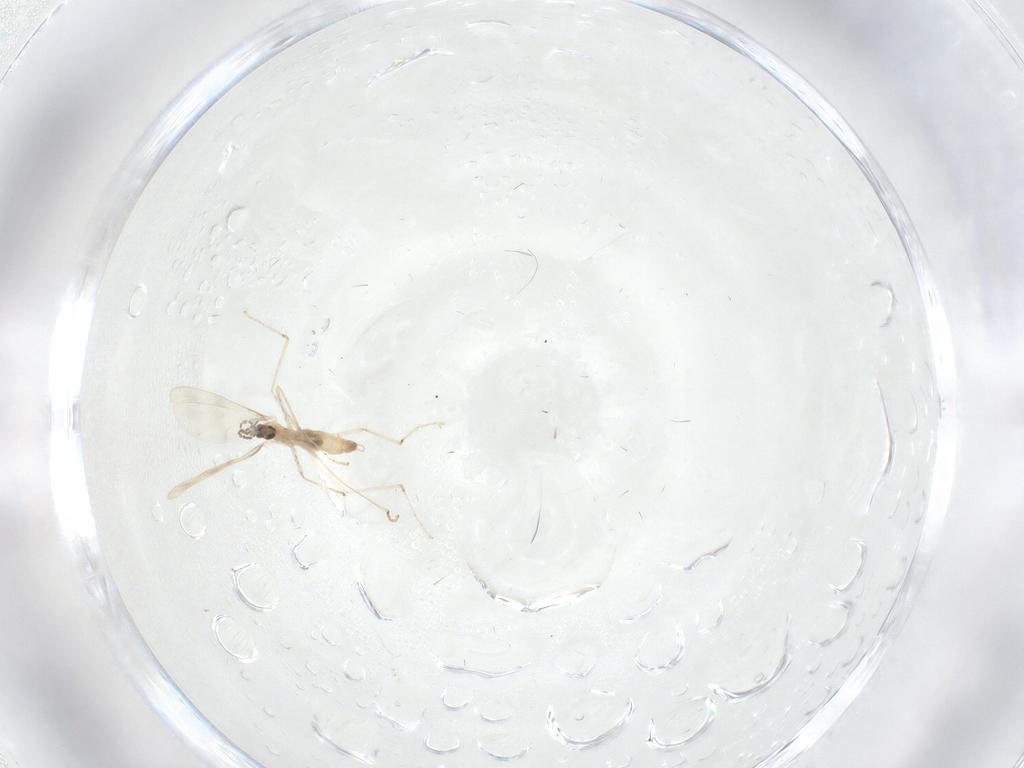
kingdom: Animalia
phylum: Arthropoda
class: Insecta
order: Diptera
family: Cecidomyiidae
